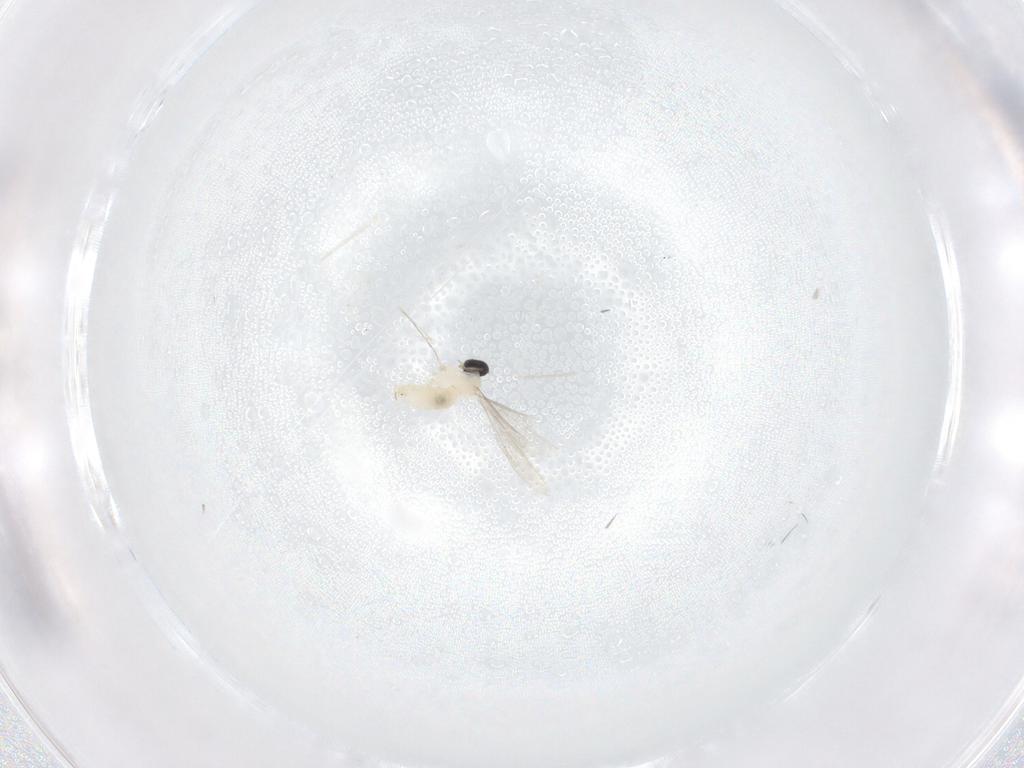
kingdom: Animalia
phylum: Arthropoda
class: Insecta
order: Diptera
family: Cecidomyiidae
